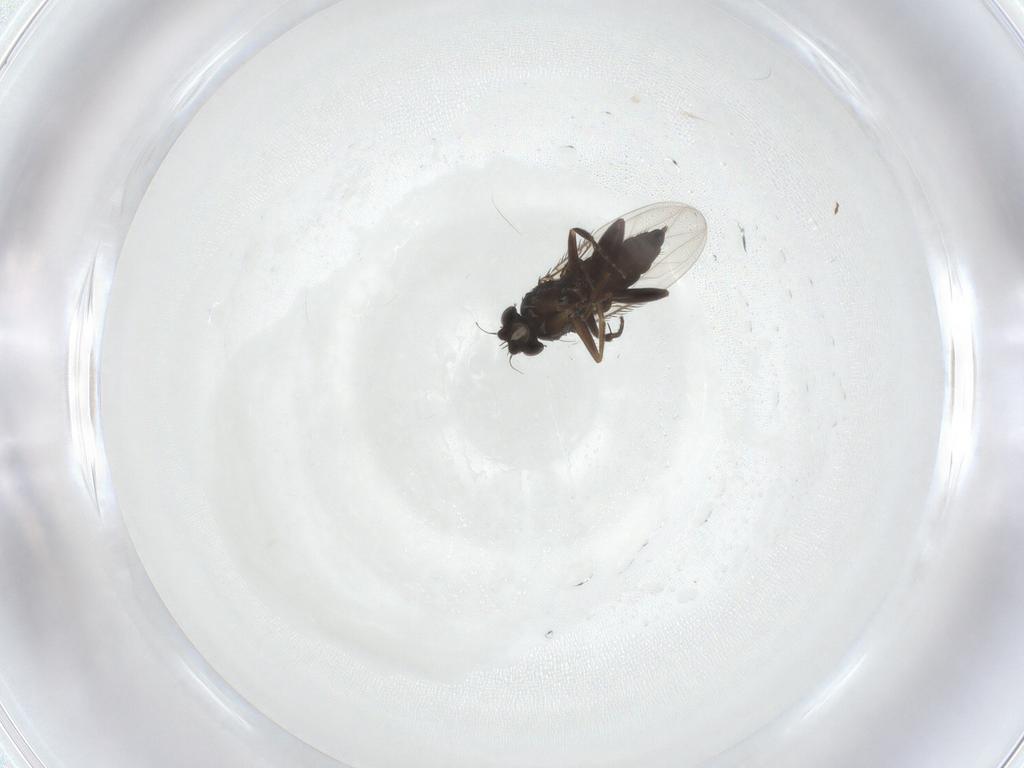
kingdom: Animalia
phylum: Arthropoda
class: Insecta
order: Diptera
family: Phoridae
